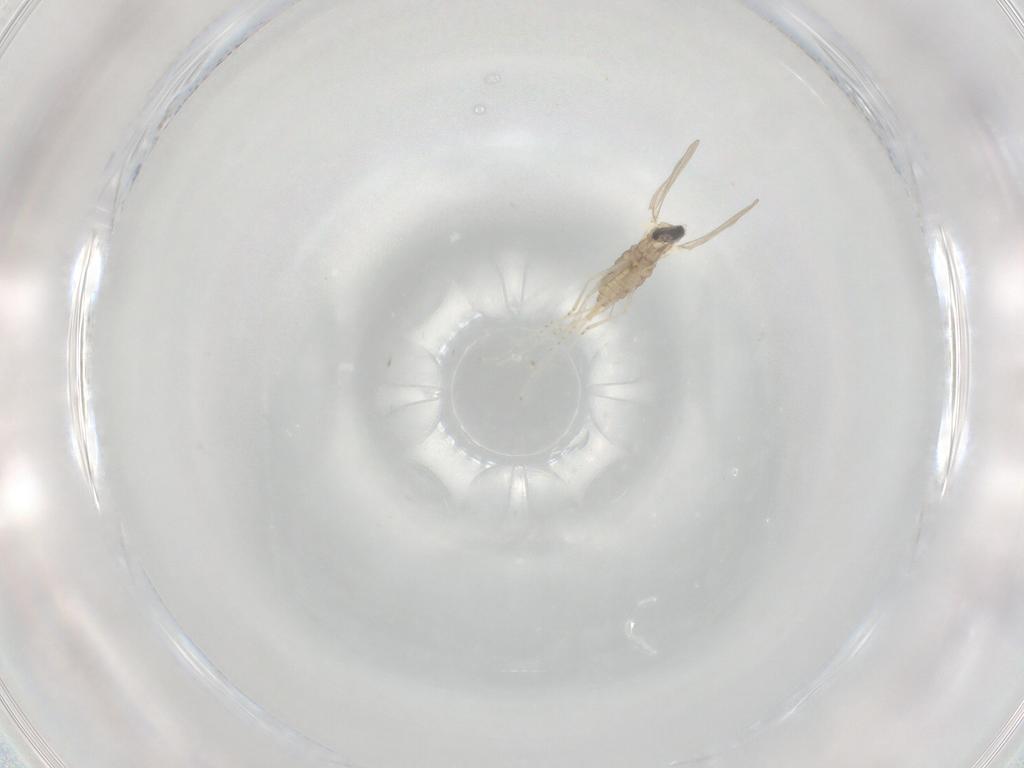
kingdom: Animalia
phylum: Arthropoda
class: Insecta
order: Diptera
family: Cecidomyiidae
